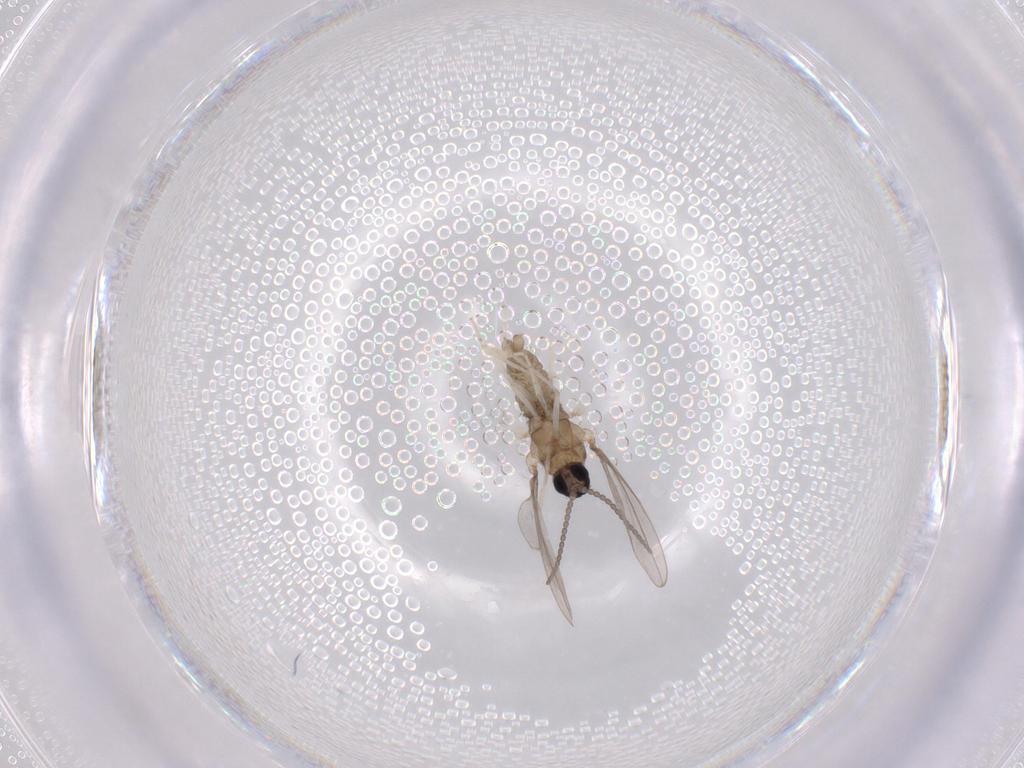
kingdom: Animalia
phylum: Arthropoda
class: Insecta
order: Diptera
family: Cecidomyiidae
